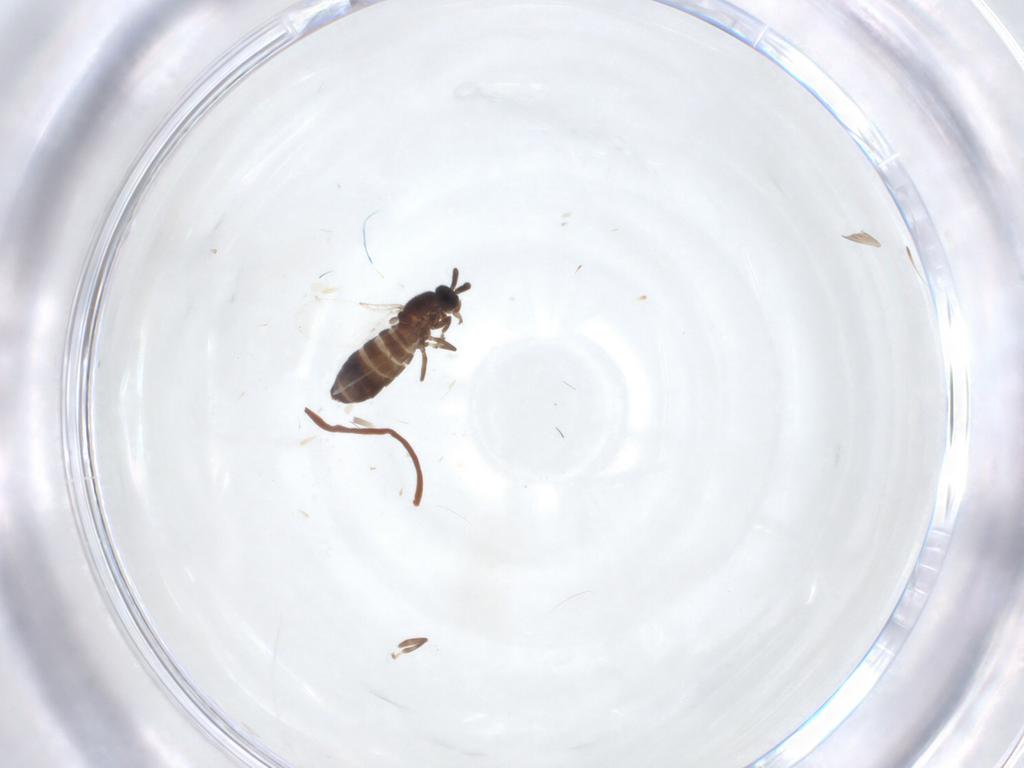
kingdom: Animalia
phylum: Arthropoda
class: Insecta
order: Diptera
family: Scatopsidae
